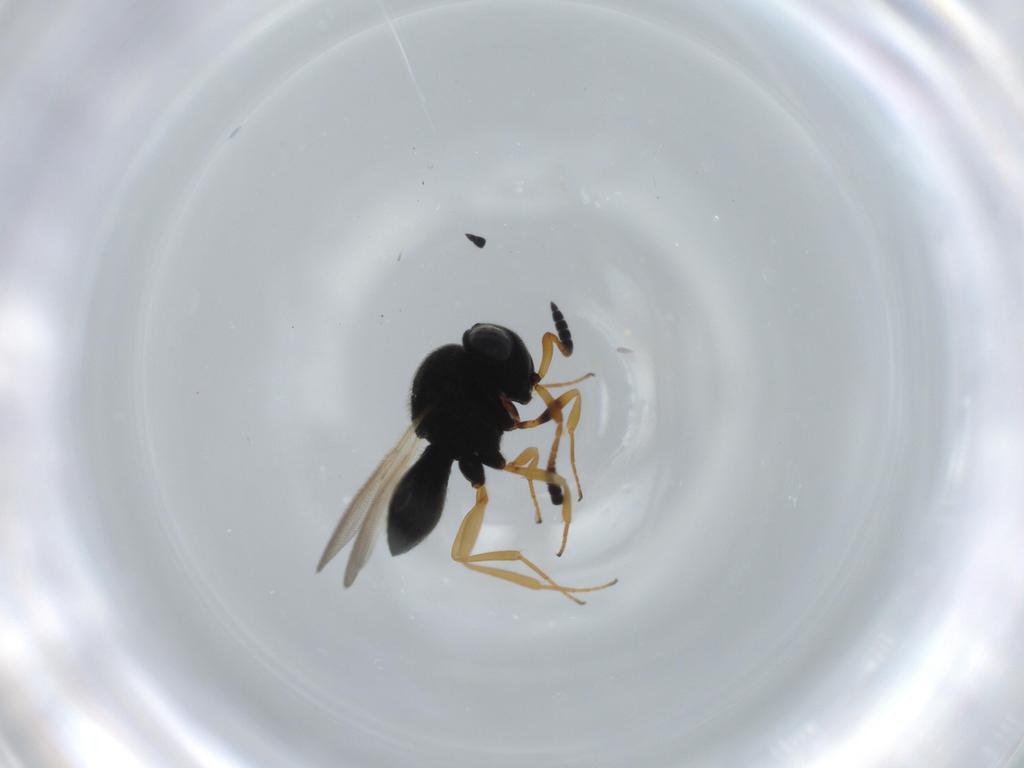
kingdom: Animalia
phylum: Arthropoda
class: Insecta
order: Hymenoptera
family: Scelionidae
